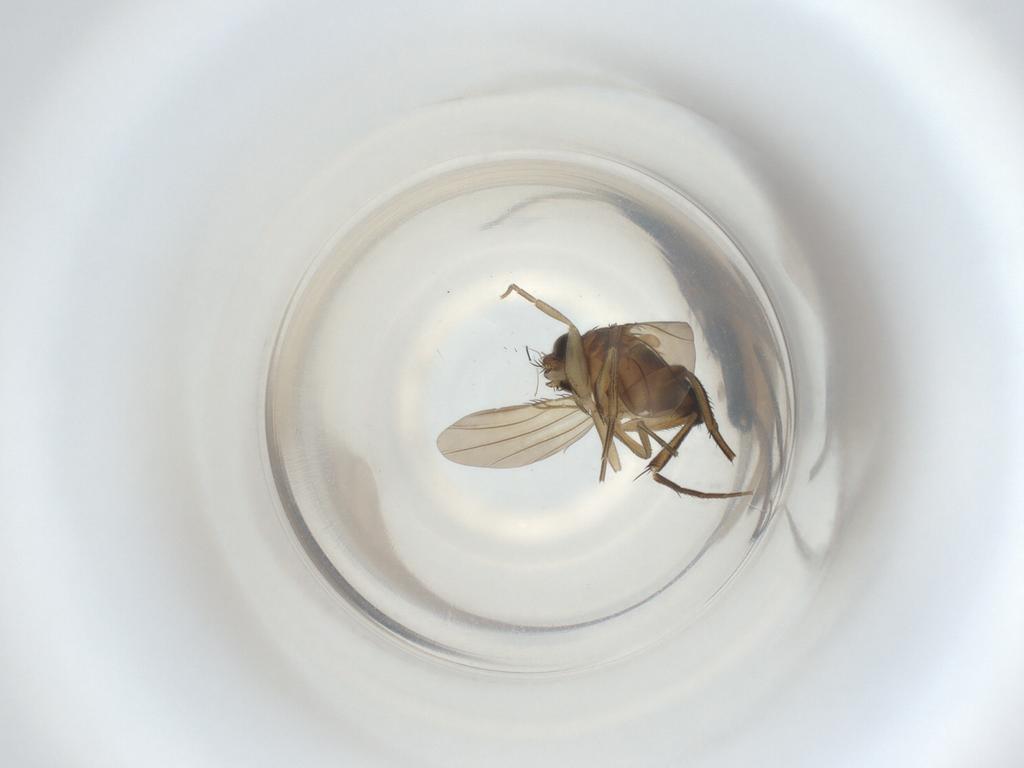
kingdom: Animalia
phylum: Arthropoda
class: Insecta
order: Diptera
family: Phoridae
